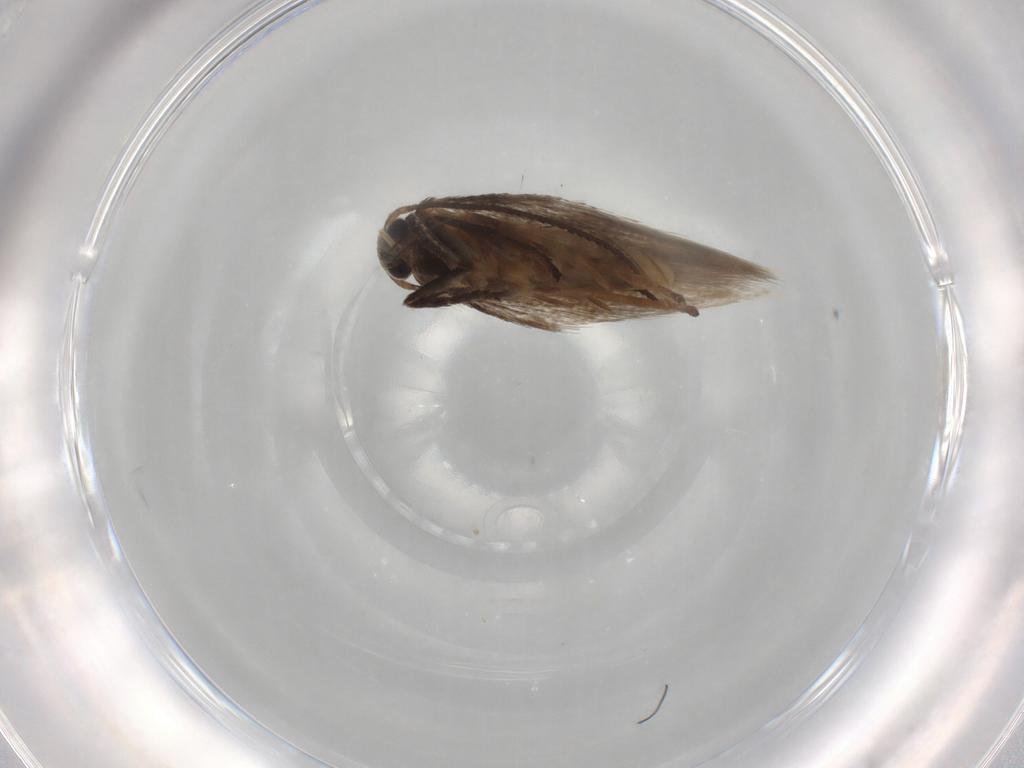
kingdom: Animalia
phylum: Arthropoda
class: Insecta
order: Lepidoptera
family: Elachistidae
